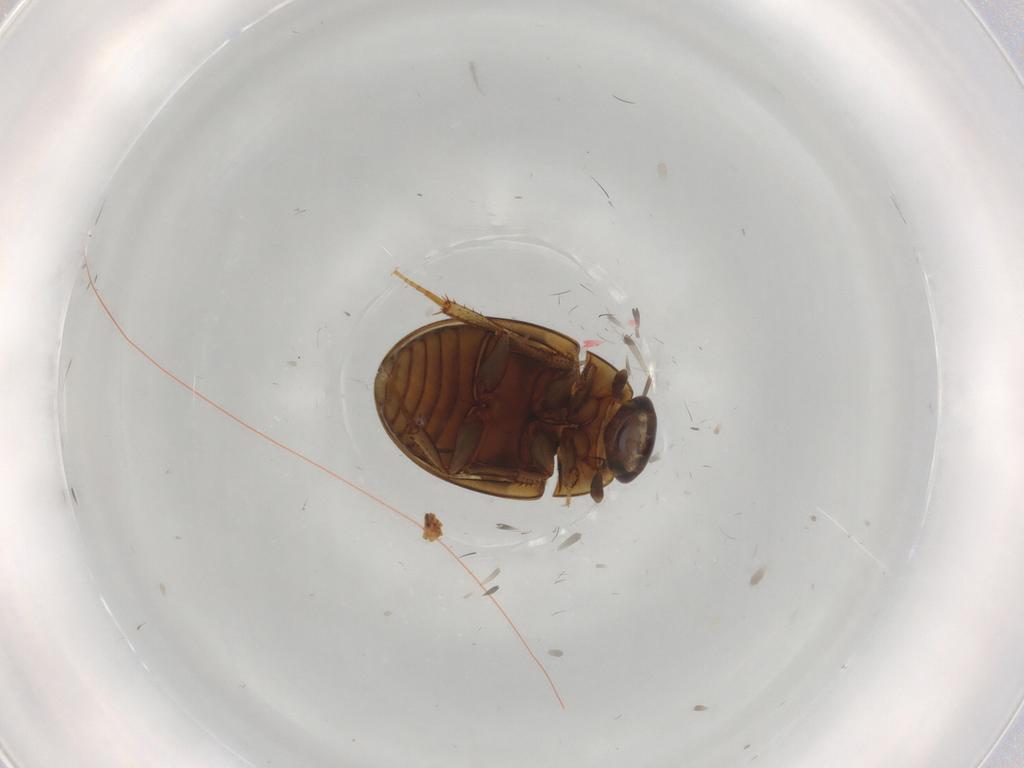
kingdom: Animalia
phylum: Arthropoda
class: Insecta
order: Coleoptera
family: Hydrophilidae
